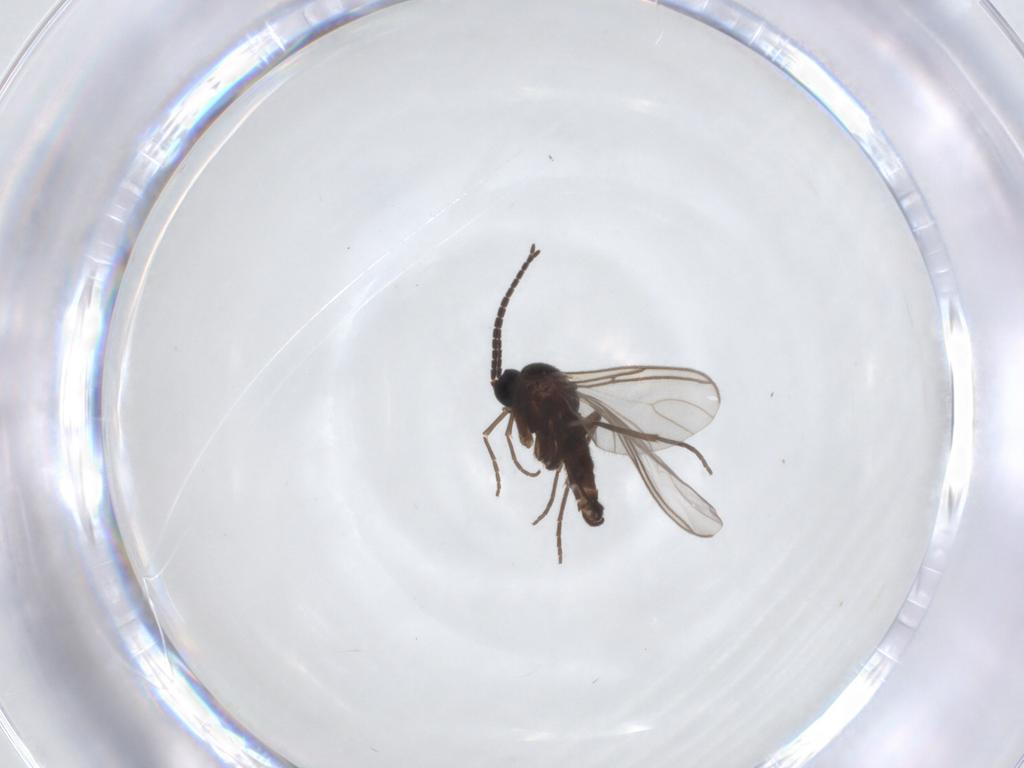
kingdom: Animalia
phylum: Arthropoda
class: Insecta
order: Diptera
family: Sciaridae
